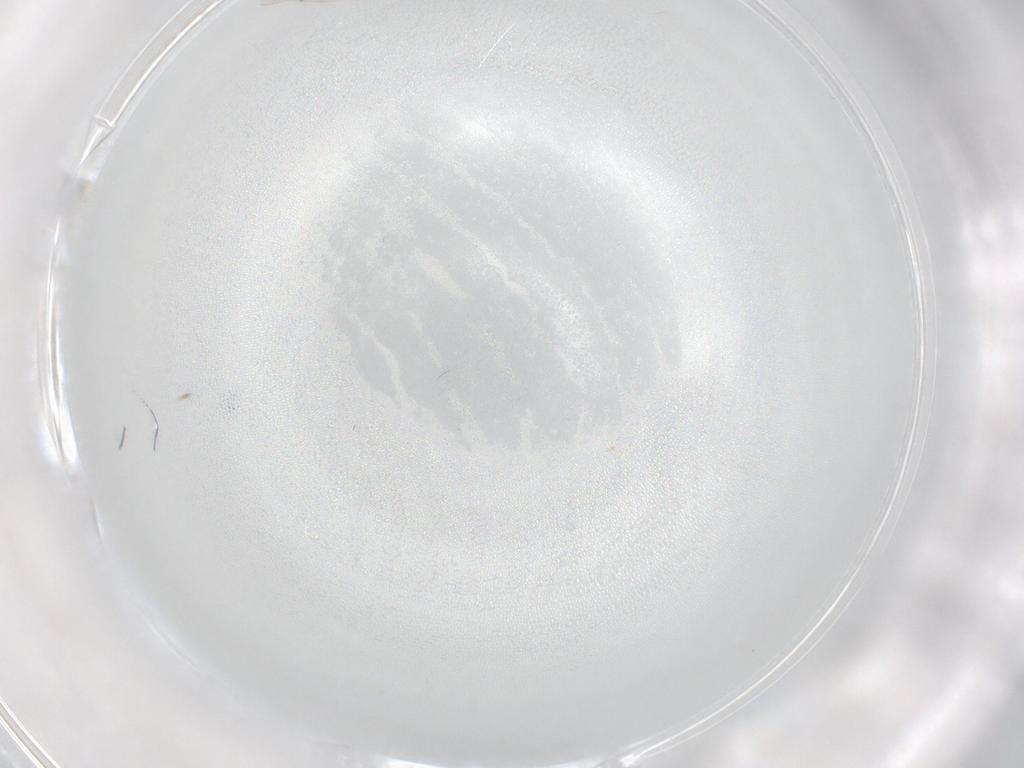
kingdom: Animalia
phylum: Arthropoda
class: Insecta
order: Diptera
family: Cecidomyiidae
